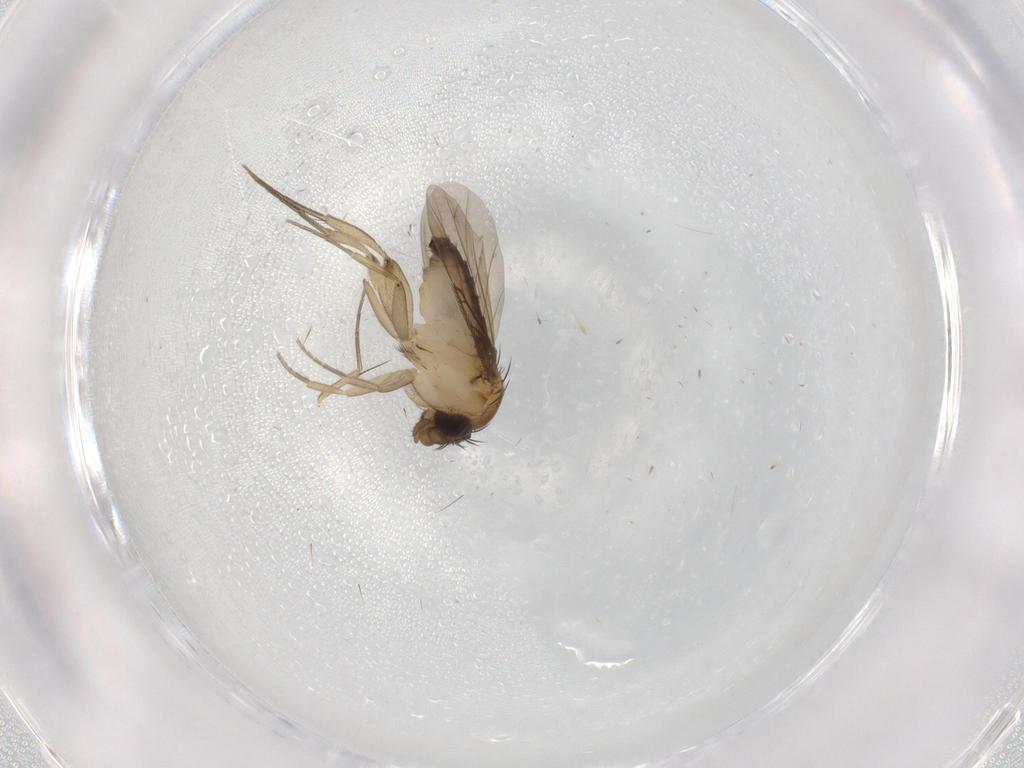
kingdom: Animalia
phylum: Arthropoda
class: Insecta
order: Diptera
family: Phoridae
